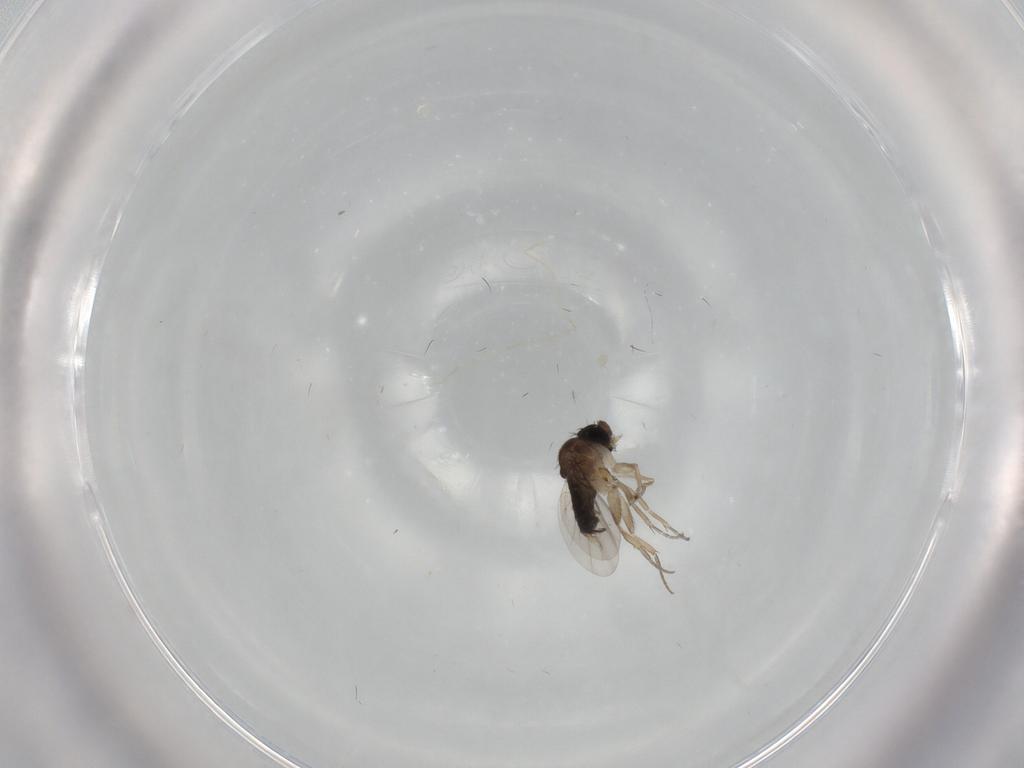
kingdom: Animalia
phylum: Arthropoda
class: Insecta
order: Diptera
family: Phoridae
